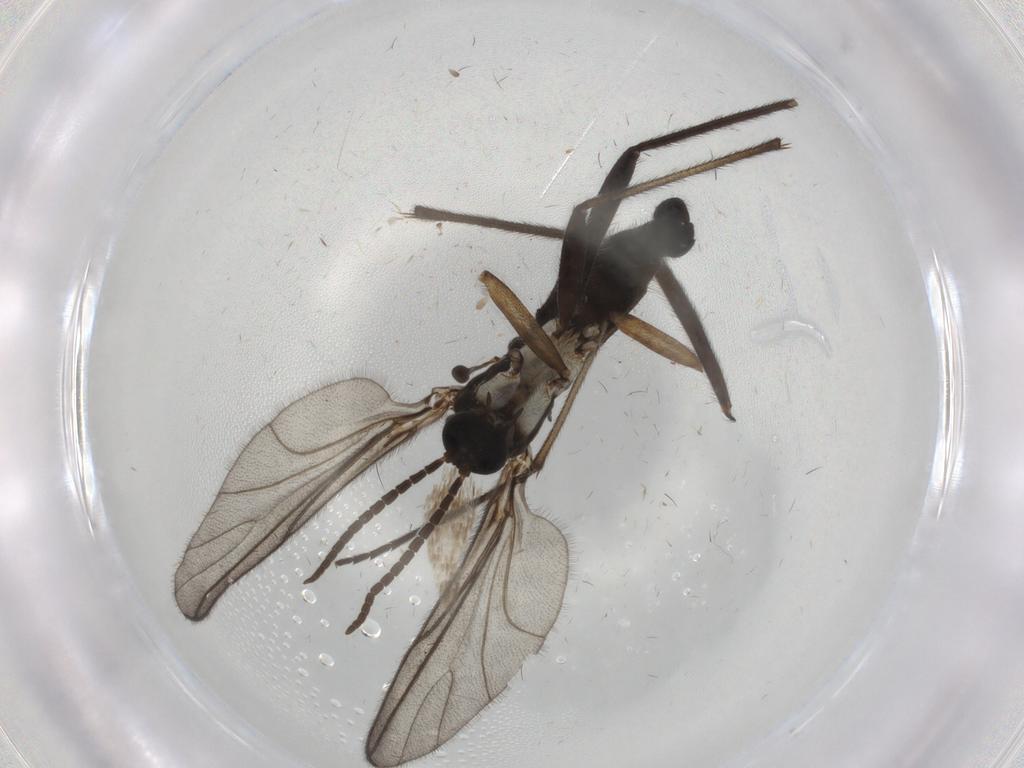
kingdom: Animalia
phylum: Arthropoda
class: Insecta
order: Diptera
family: Sciaridae
